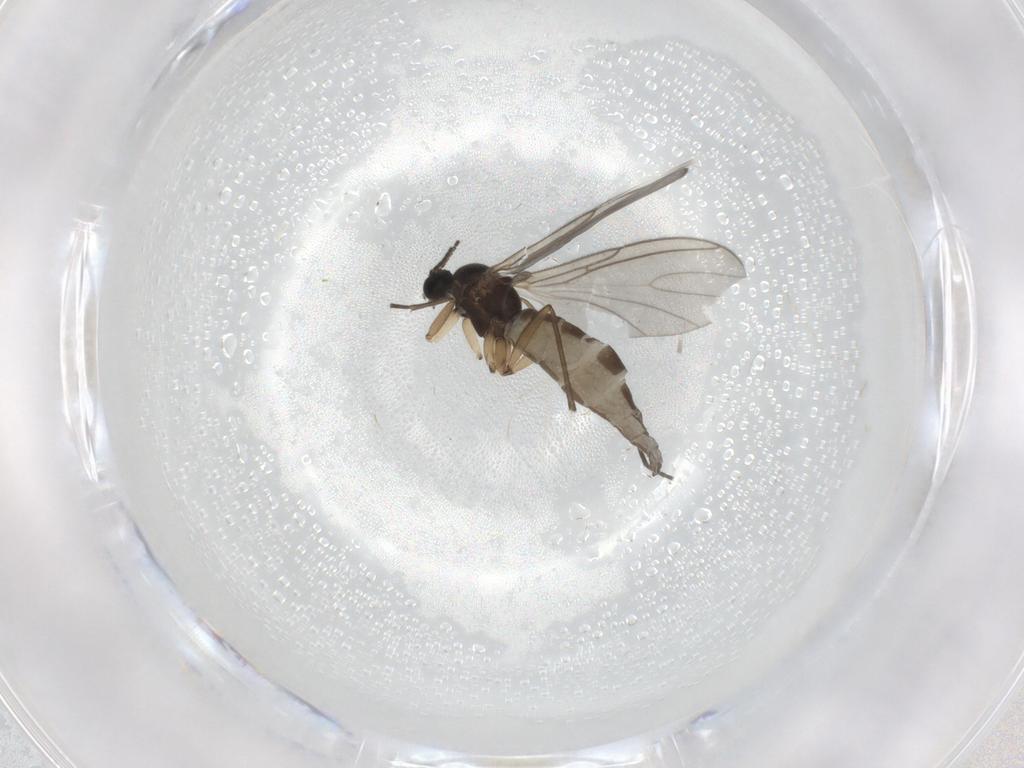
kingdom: Animalia
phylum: Arthropoda
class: Insecta
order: Diptera
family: Sciaridae
